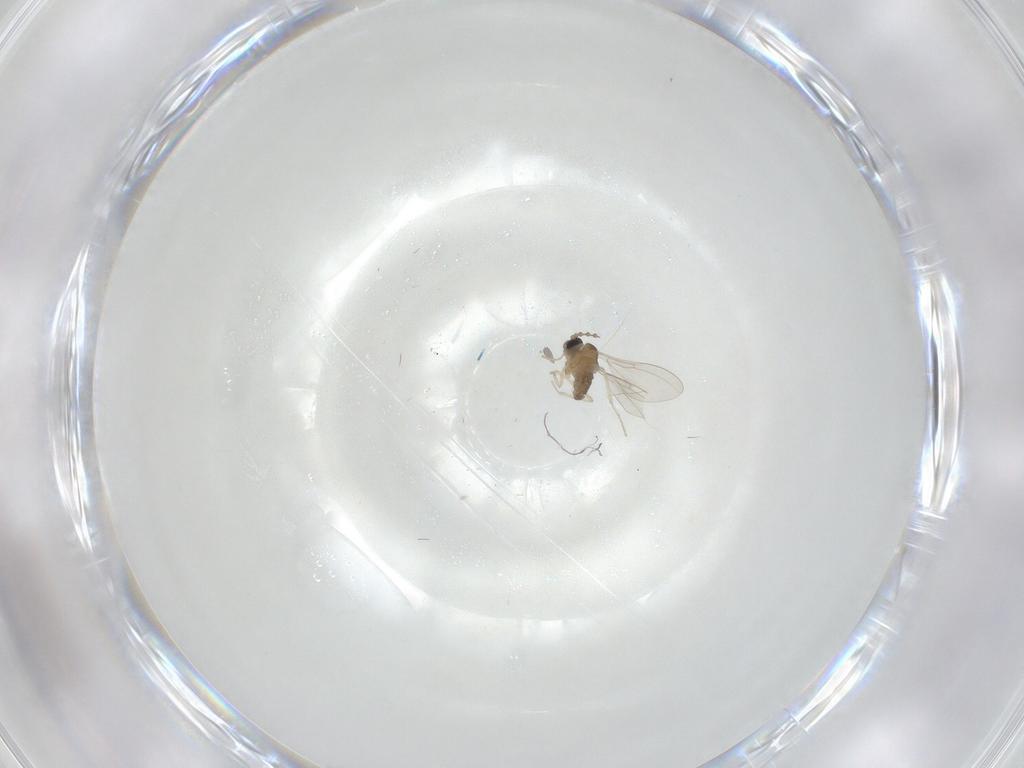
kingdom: Animalia
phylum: Arthropoda
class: Insecta
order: Diptera
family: Cecidomyiidae
